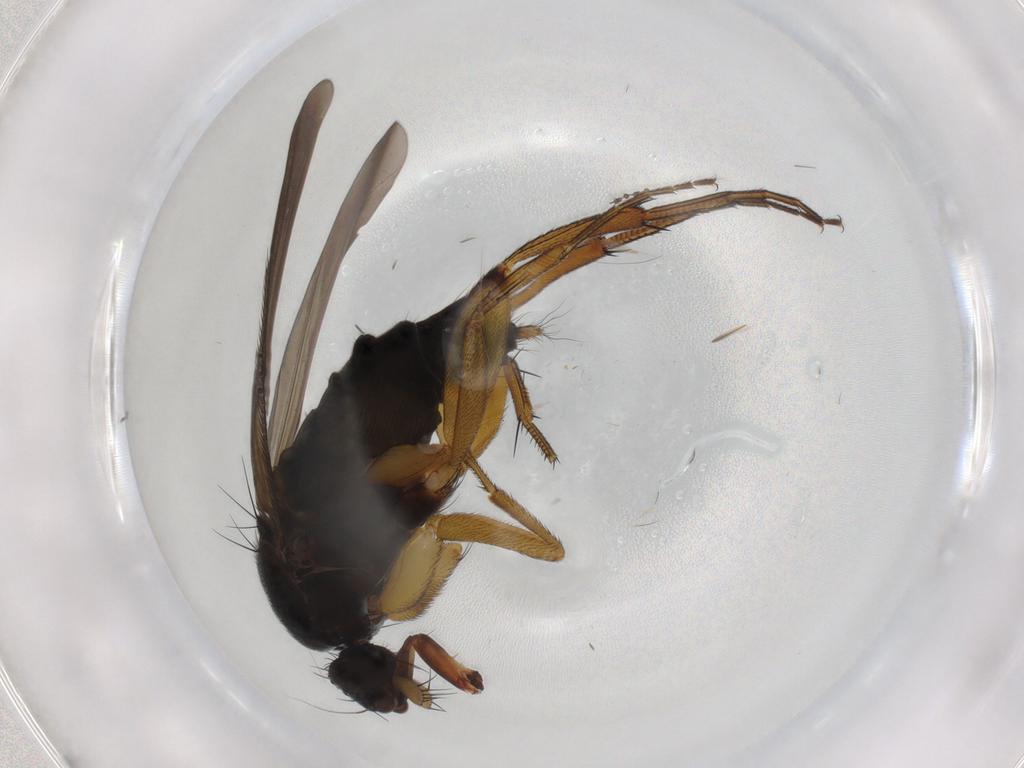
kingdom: Animalia
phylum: Arthropoda
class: Insecta
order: Diptera
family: Phoridae
